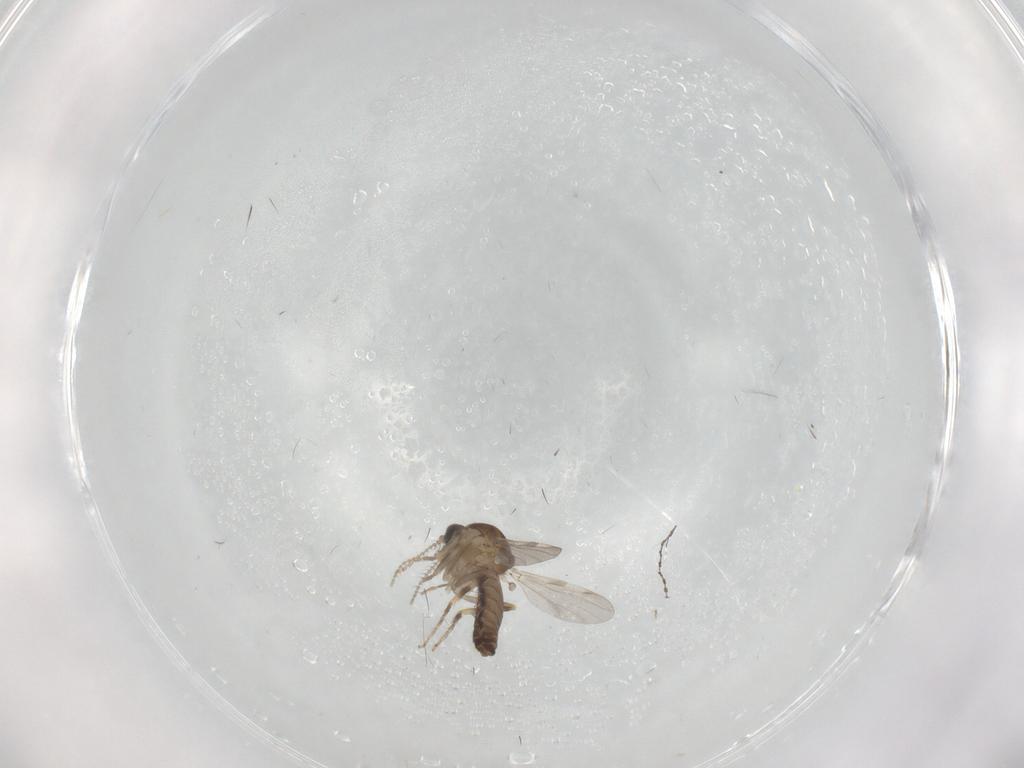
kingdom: Animalia
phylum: Arthropoda
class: Insecta
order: Diptera
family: Ceratopogonidae
